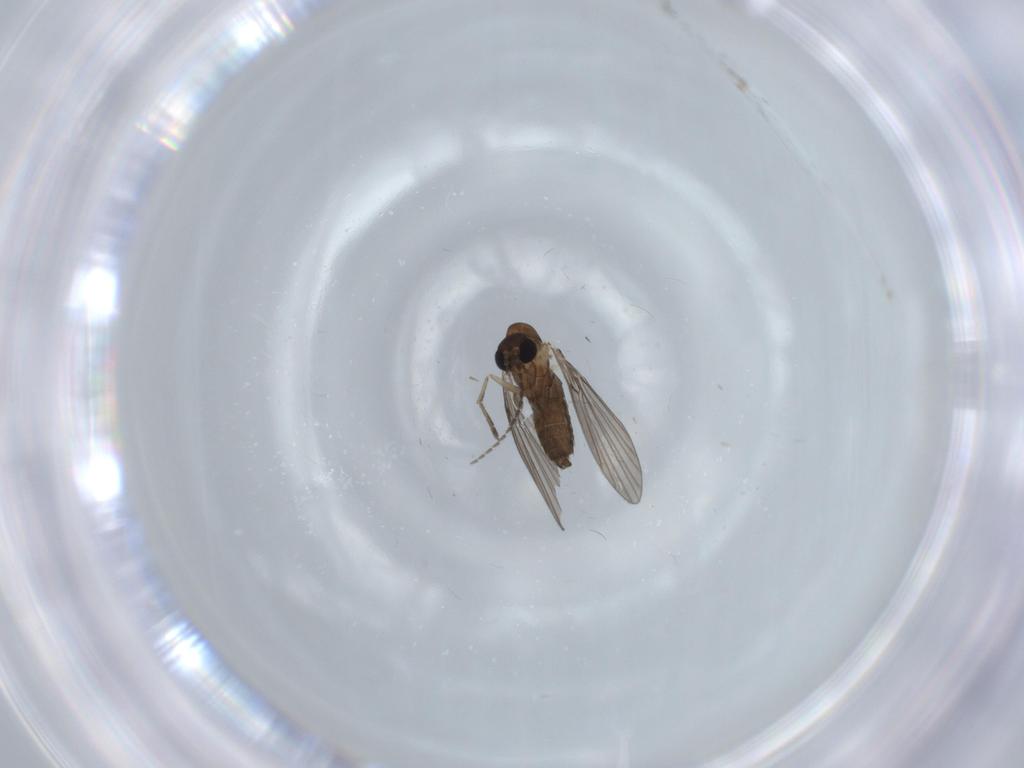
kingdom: Animalia
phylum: Arthropoda
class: Insecta
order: Diptera
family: Psychodidae
